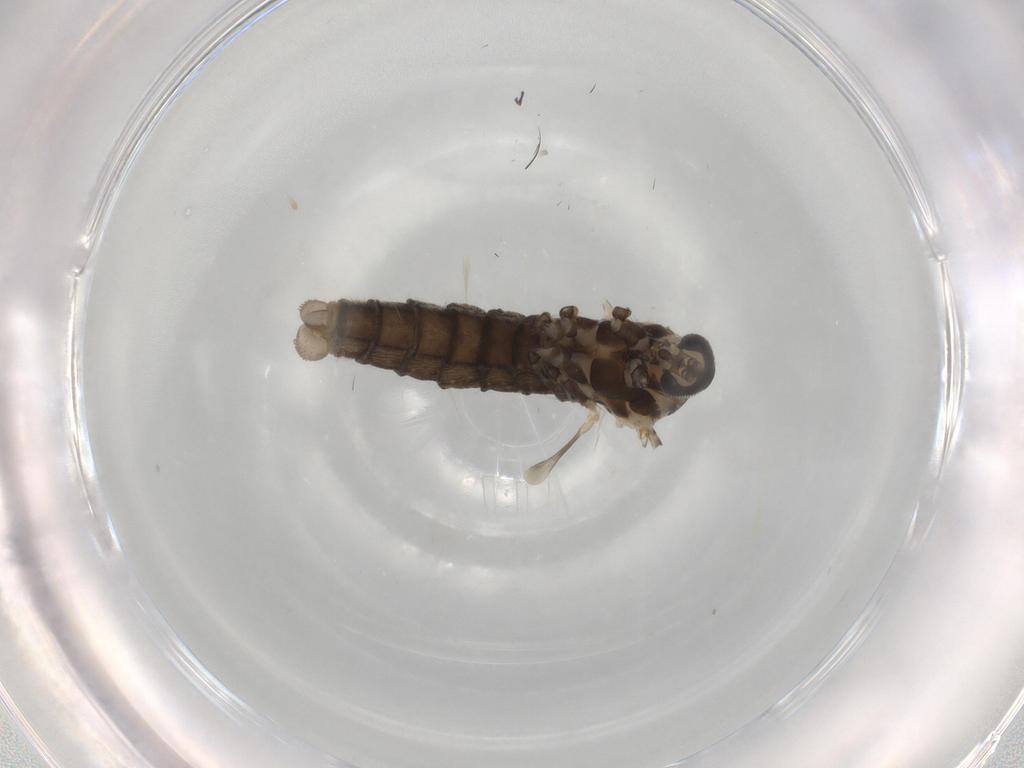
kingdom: Animalia
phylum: Arthropoda
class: Insecta
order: Diptera
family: Cecidomyiidae
